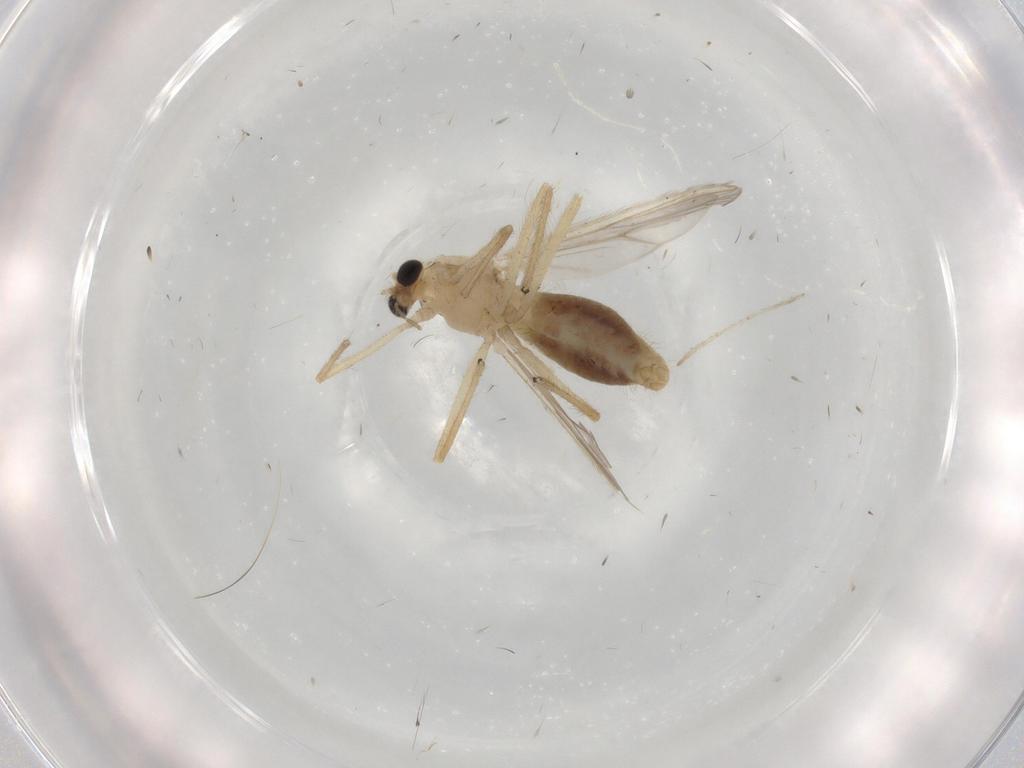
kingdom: Animalia
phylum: Arthropoda
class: Insecta
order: Diptera
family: Chironomidae
